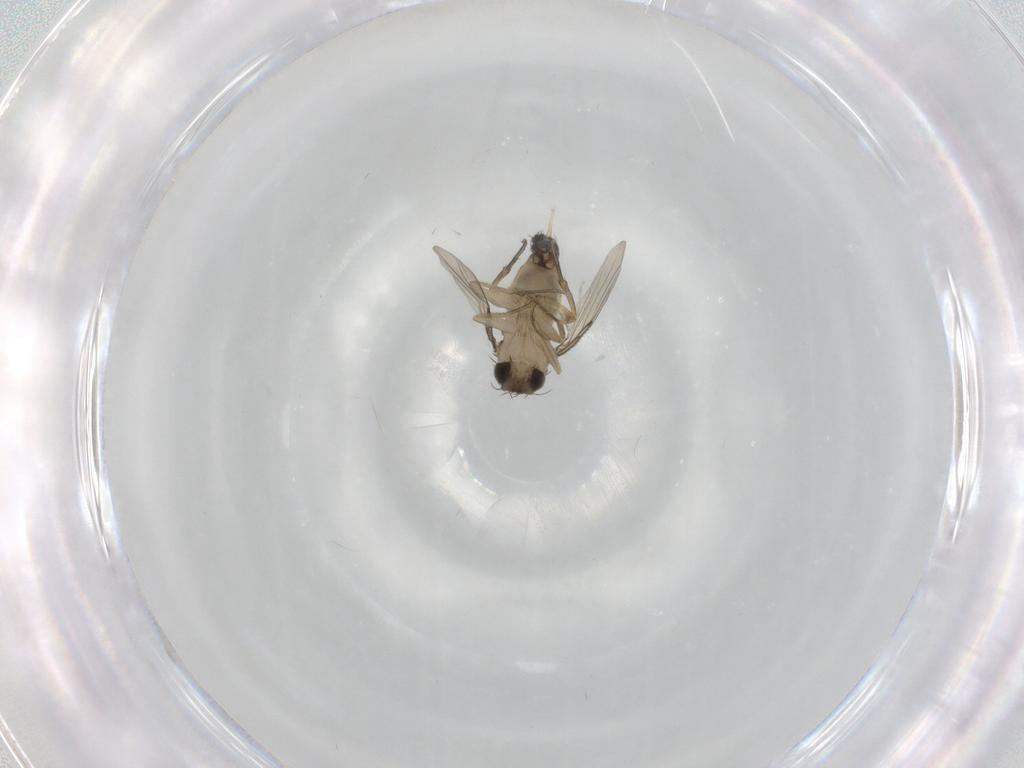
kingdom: Animalia
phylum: Arthropoda
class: Insecta
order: Diptera
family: Phoridae
